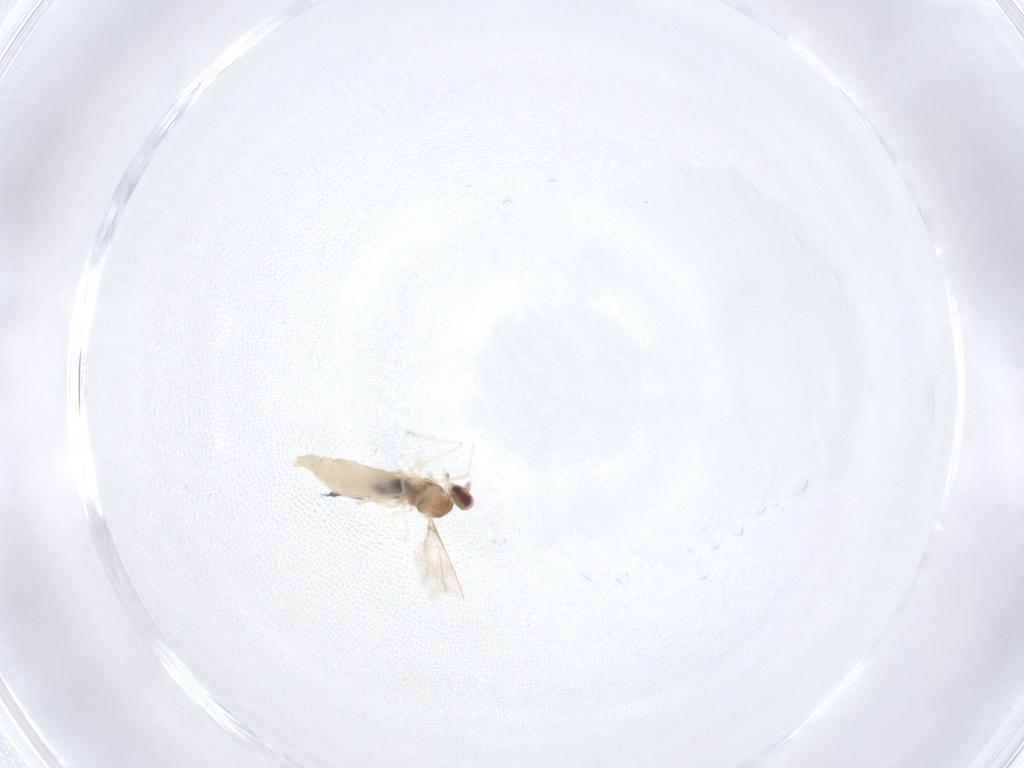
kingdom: Animalia
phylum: Arthropoda
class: Insecta
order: Diptera
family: Cecidomyiidae
